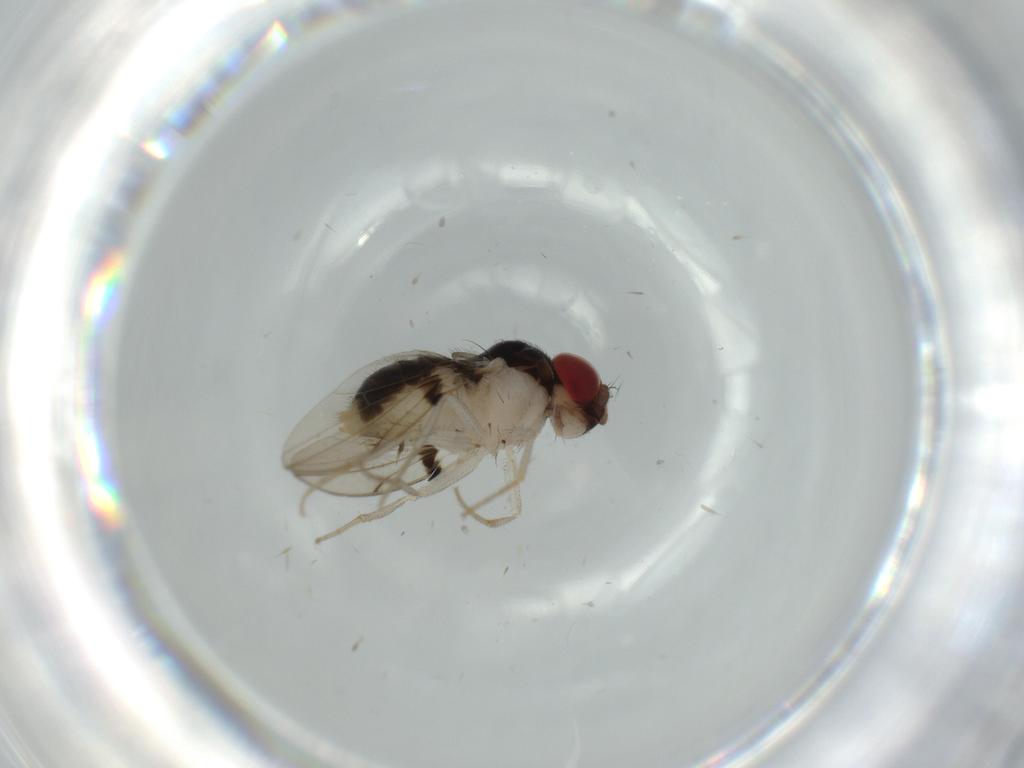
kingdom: Animalia
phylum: Arthropoda
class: Insecta
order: Diptera
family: Drosophilidae
